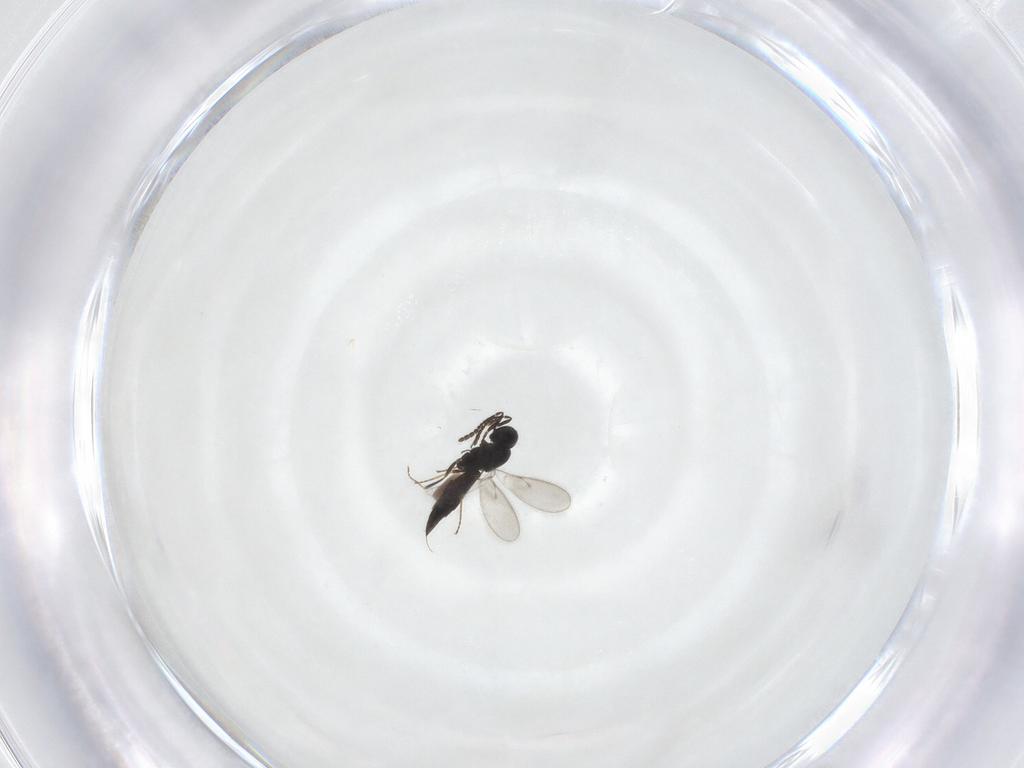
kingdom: Animalia
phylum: Arthropoda
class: Insecta
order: Hymenoptera
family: Scelionidae
